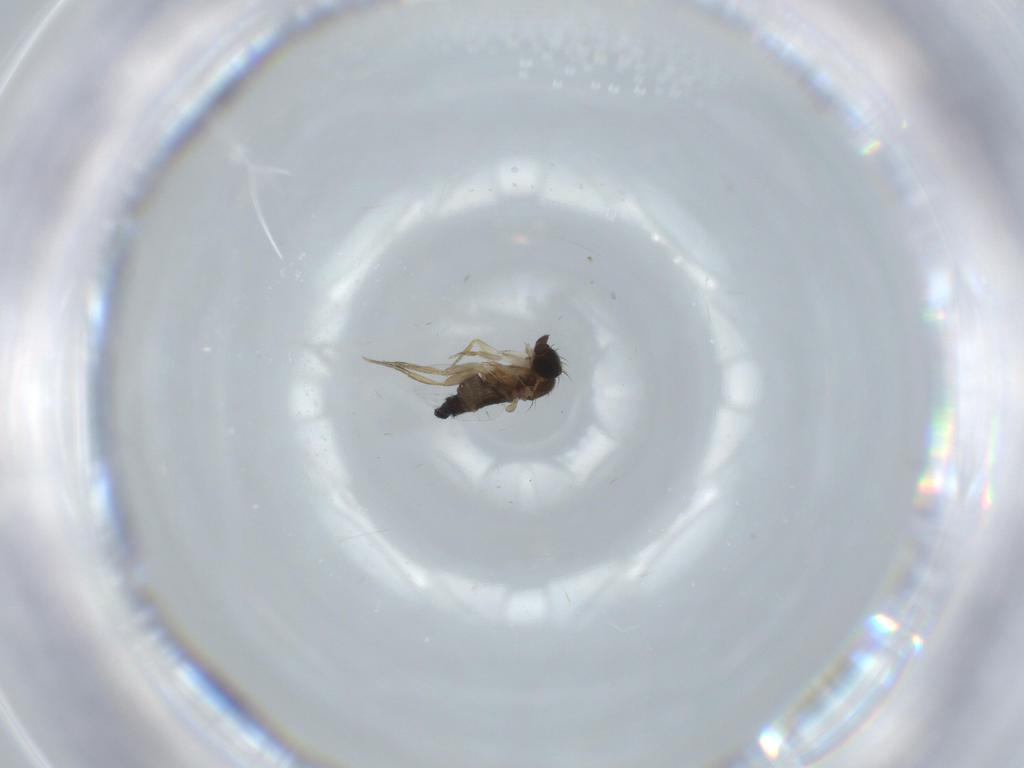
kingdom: Animalia
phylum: Arthropoda
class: Insecta
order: Diptera
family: Phoridae
